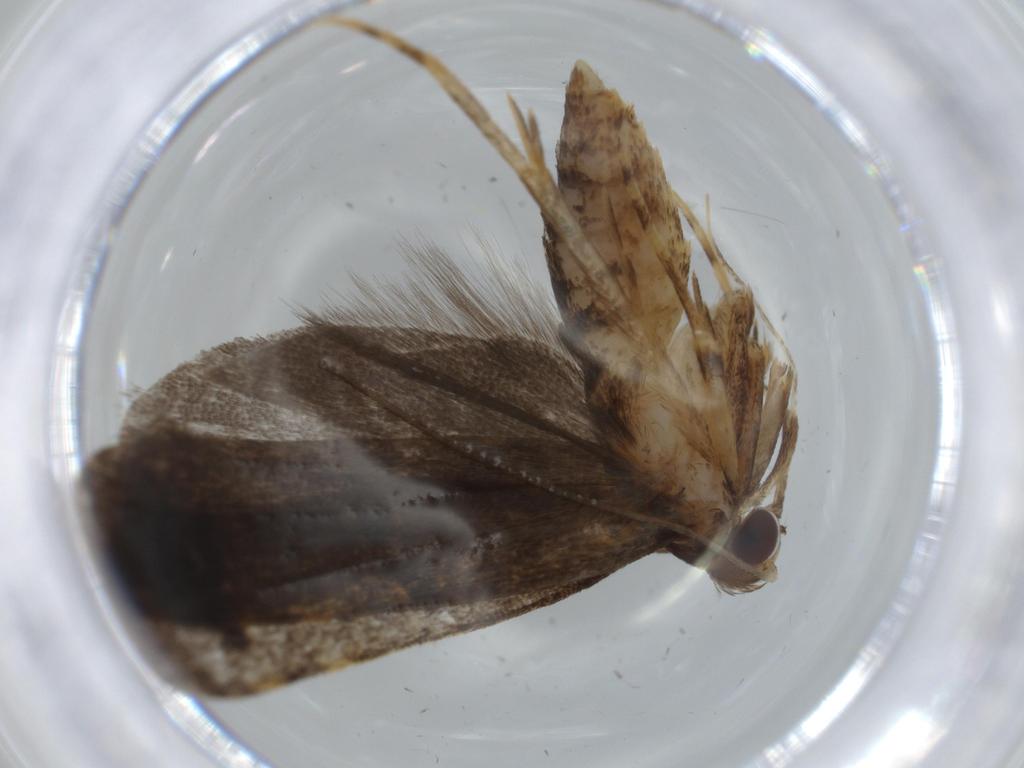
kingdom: Animalia
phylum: Arthropoda
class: Insecta
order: Lepidoptera
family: Autostichidae
